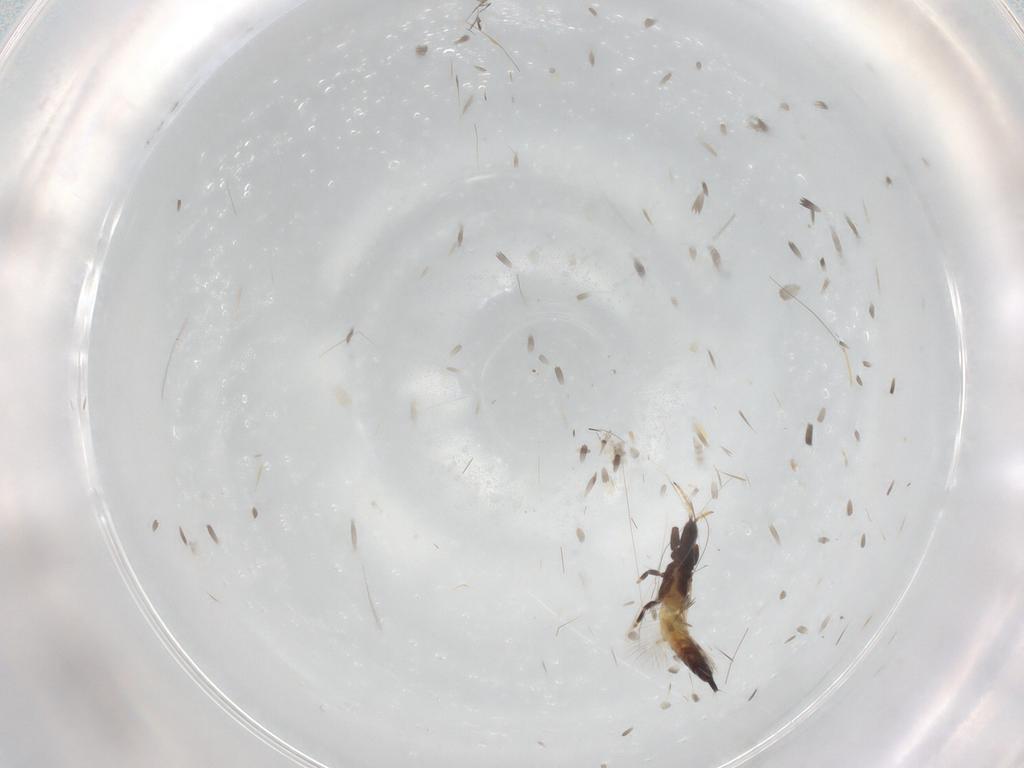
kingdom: Animalia
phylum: Arthropoda
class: Insecta
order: Thysanoptera
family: Phlaeothripidae
